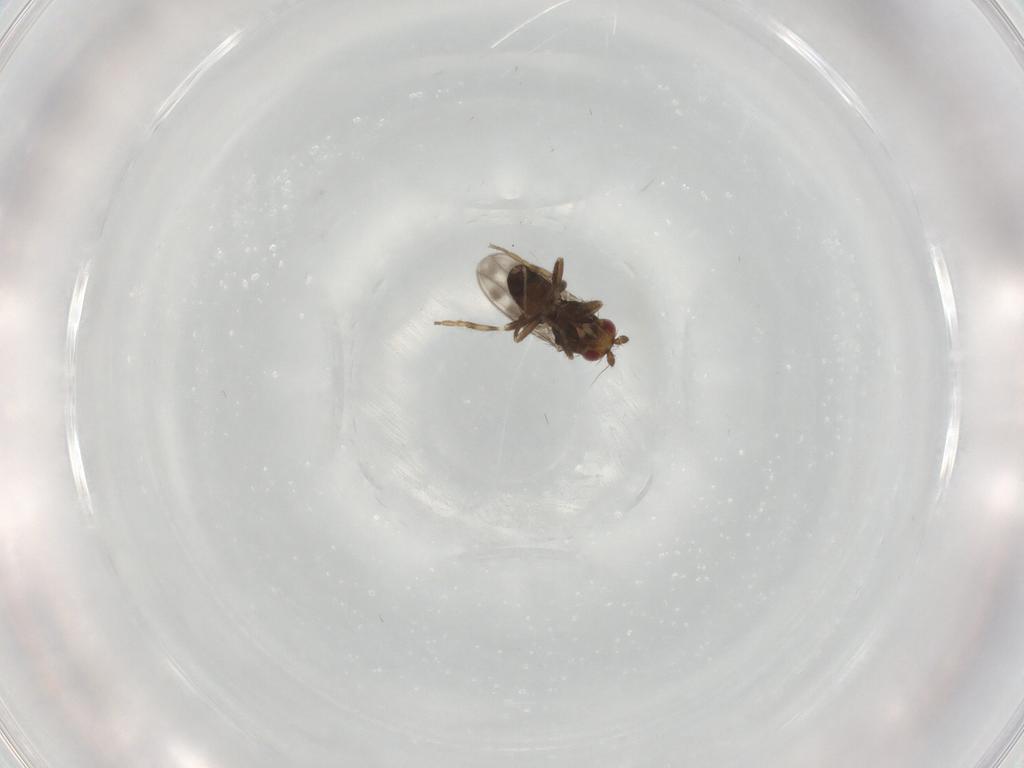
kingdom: Animalia
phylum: Arthropoda
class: Insecta
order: Diptera
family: Sphaeroceridae
